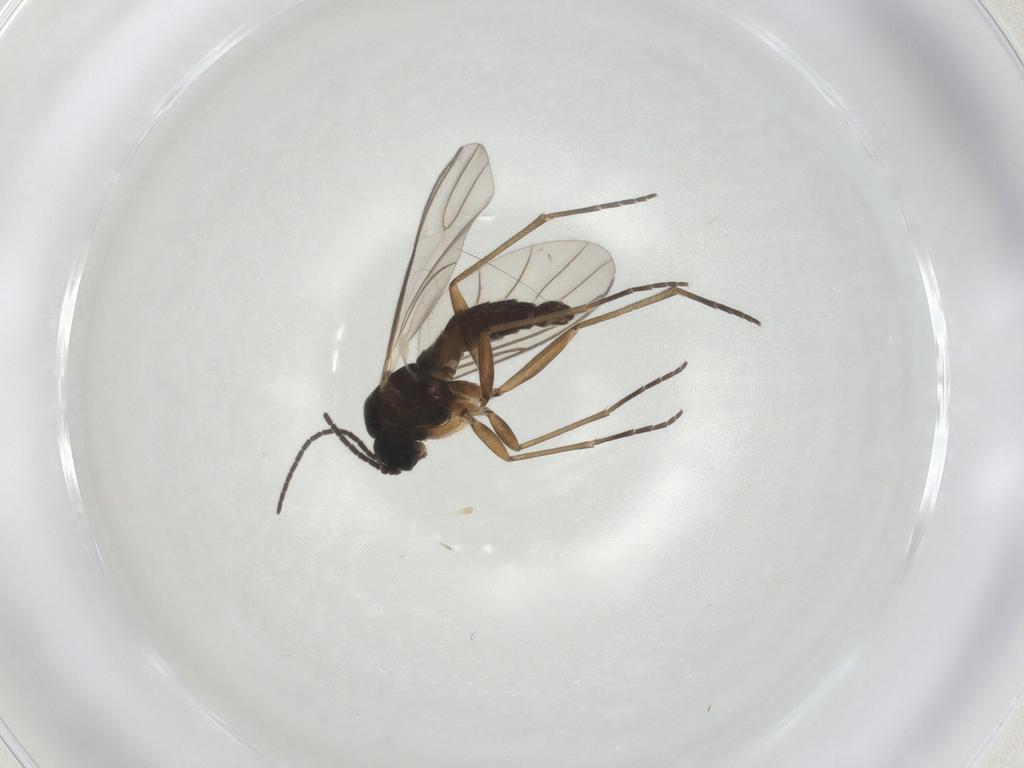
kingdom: Animalia
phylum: Arthropoda
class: Insecta
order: Diptera
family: Sciaridae
